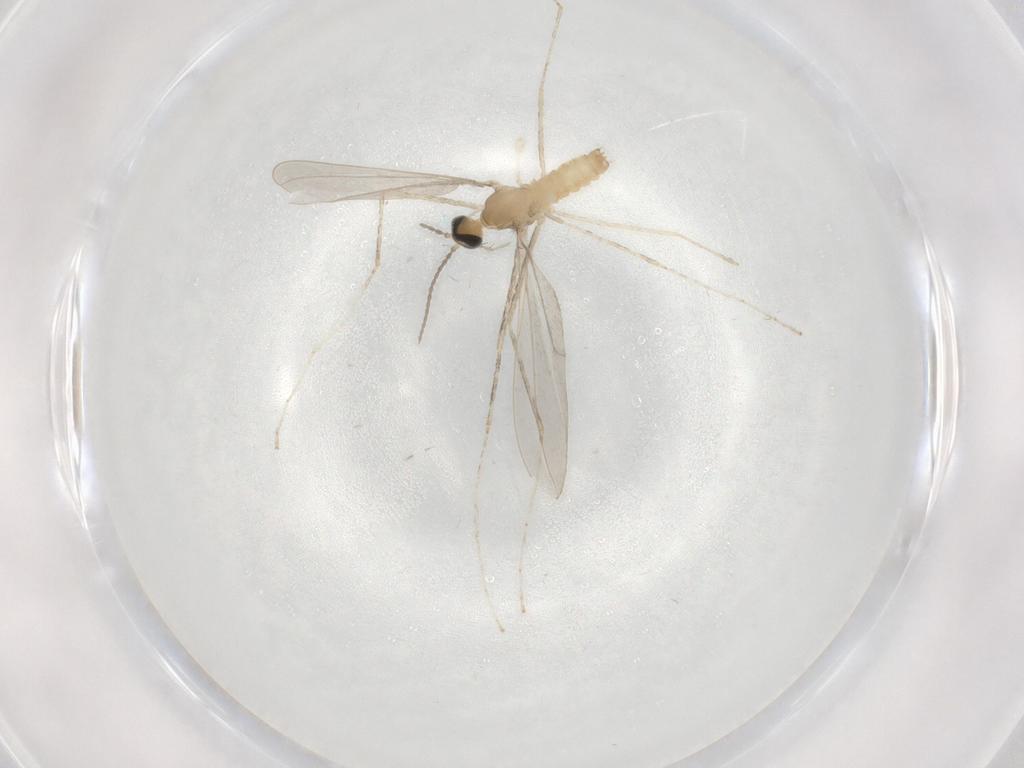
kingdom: Animalia
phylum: Arthropoda
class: Insecta
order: Diptera
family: Cecidomyiidae
